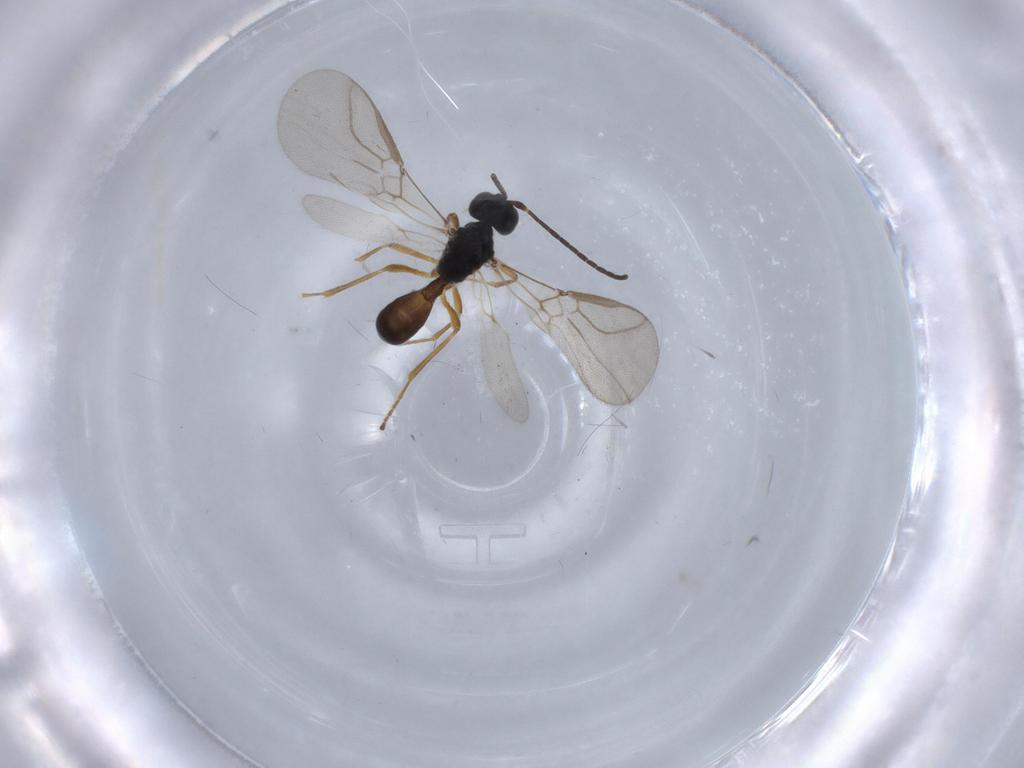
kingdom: Animalia
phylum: Arthropoda
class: Insecta
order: Hymenoptera
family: Braconidae
